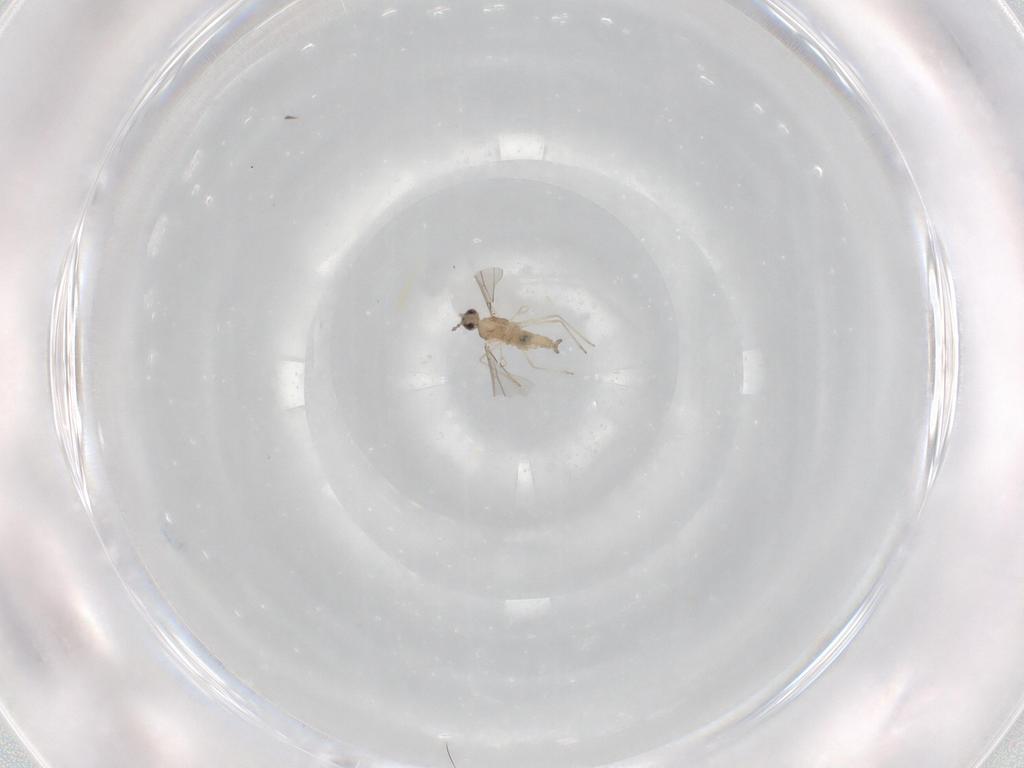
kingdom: Animalia
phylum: Arthropoda
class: Insecta
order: Diptera
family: Cecidomyiidae
